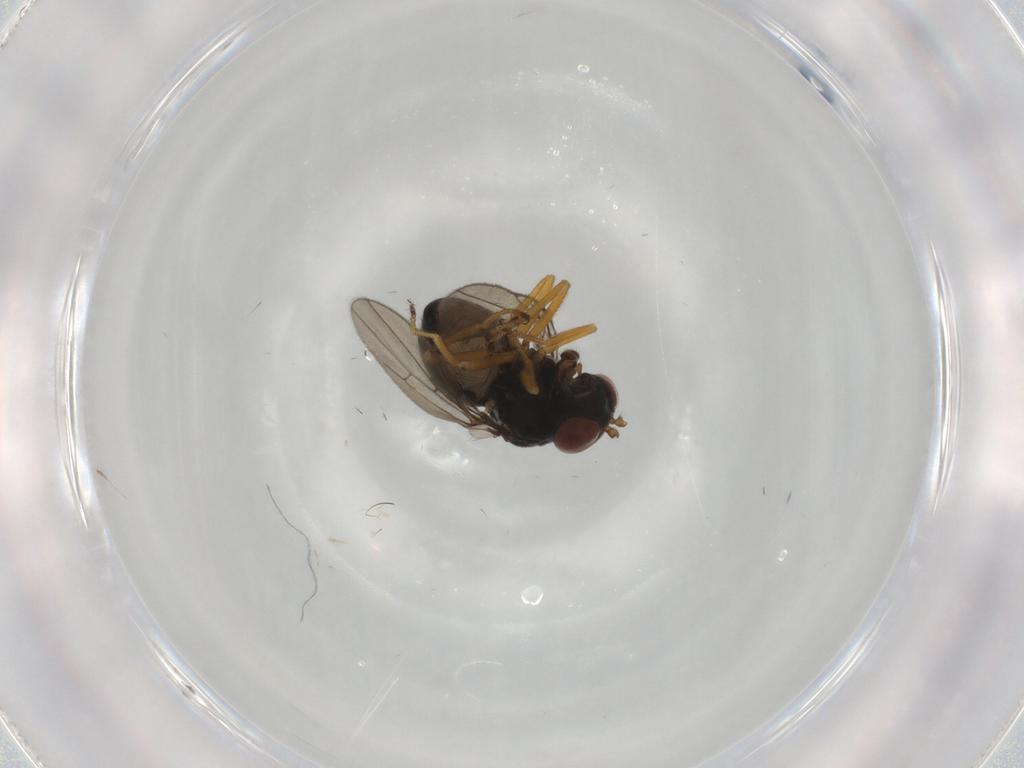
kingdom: Animalia
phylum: Arthropoda
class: Insecta
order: Diptera
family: Ephydridae
